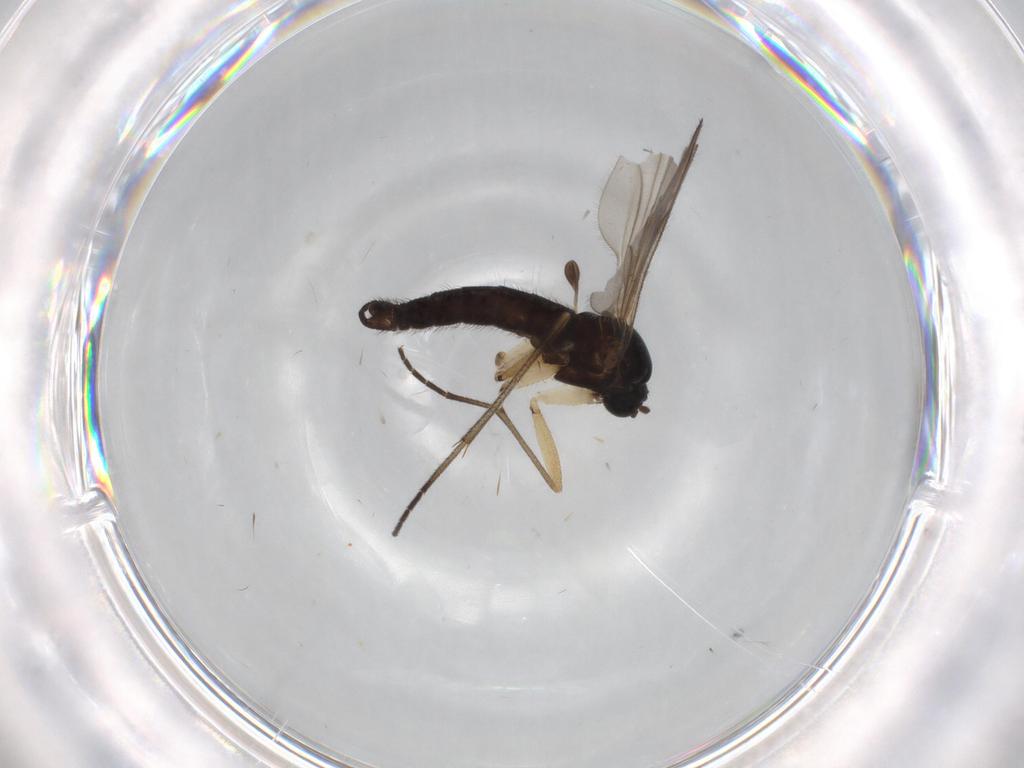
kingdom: Animalia
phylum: Arthropoda
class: Insecta
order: Diptera
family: Sciaridae
